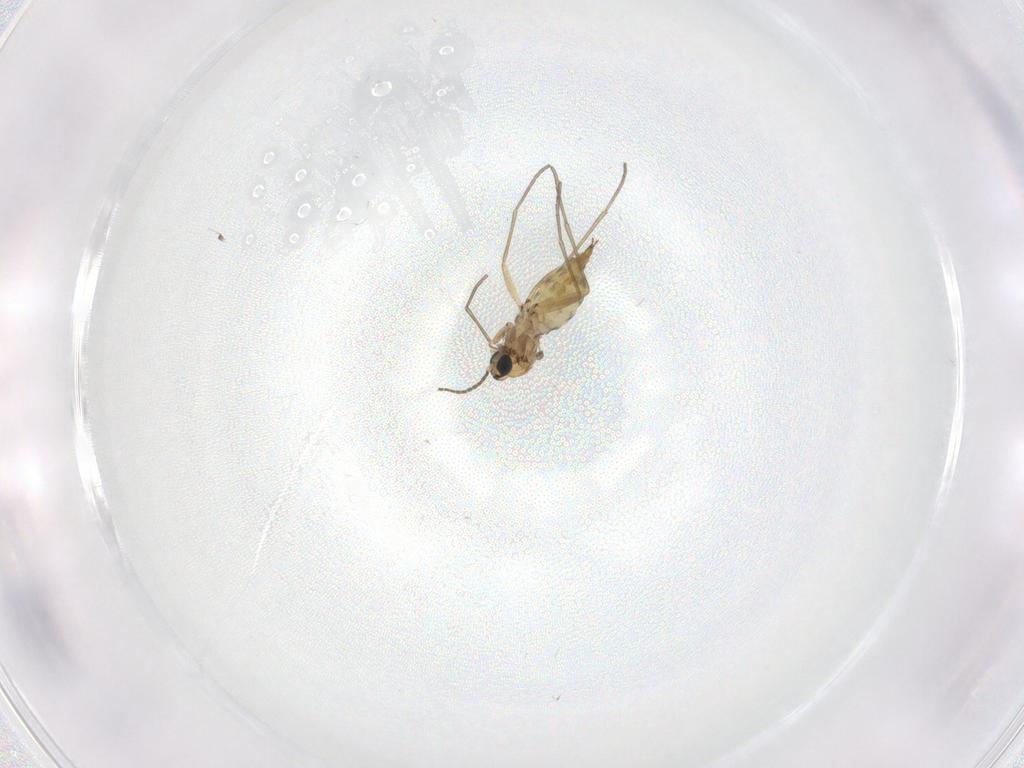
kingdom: Animalia
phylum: Arthropoda
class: Insecta
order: Diptera
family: Sciaridae
